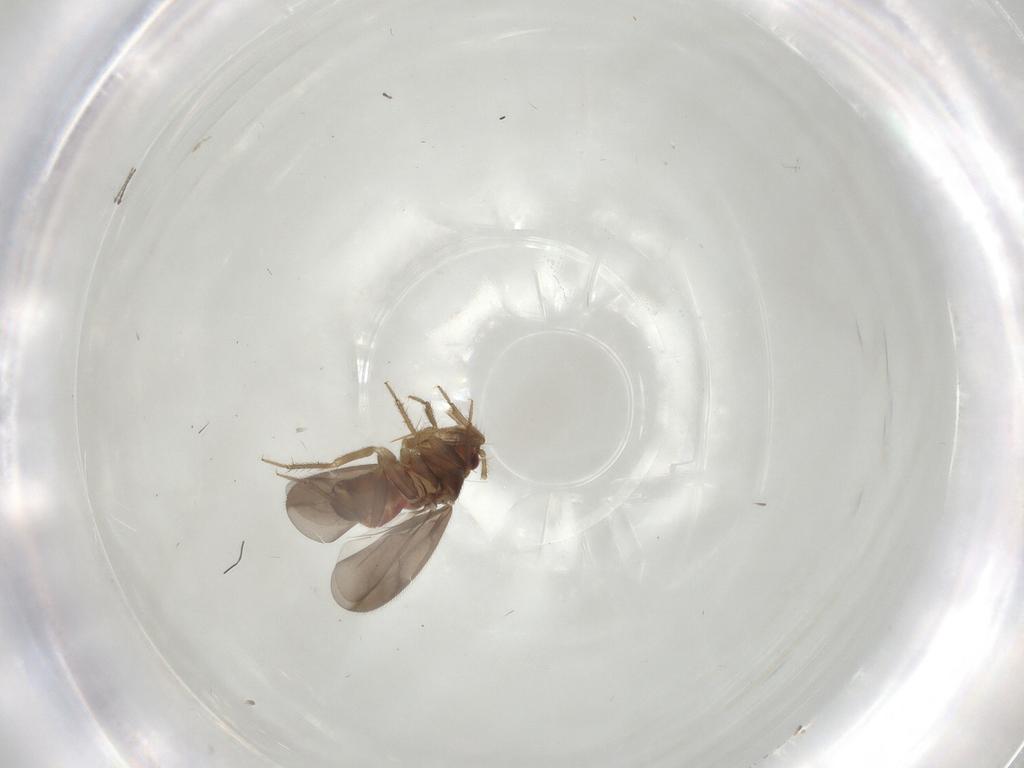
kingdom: Animalia
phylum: Arthropoda
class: Insecta
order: Hemiptera
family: Ceratocombidae
